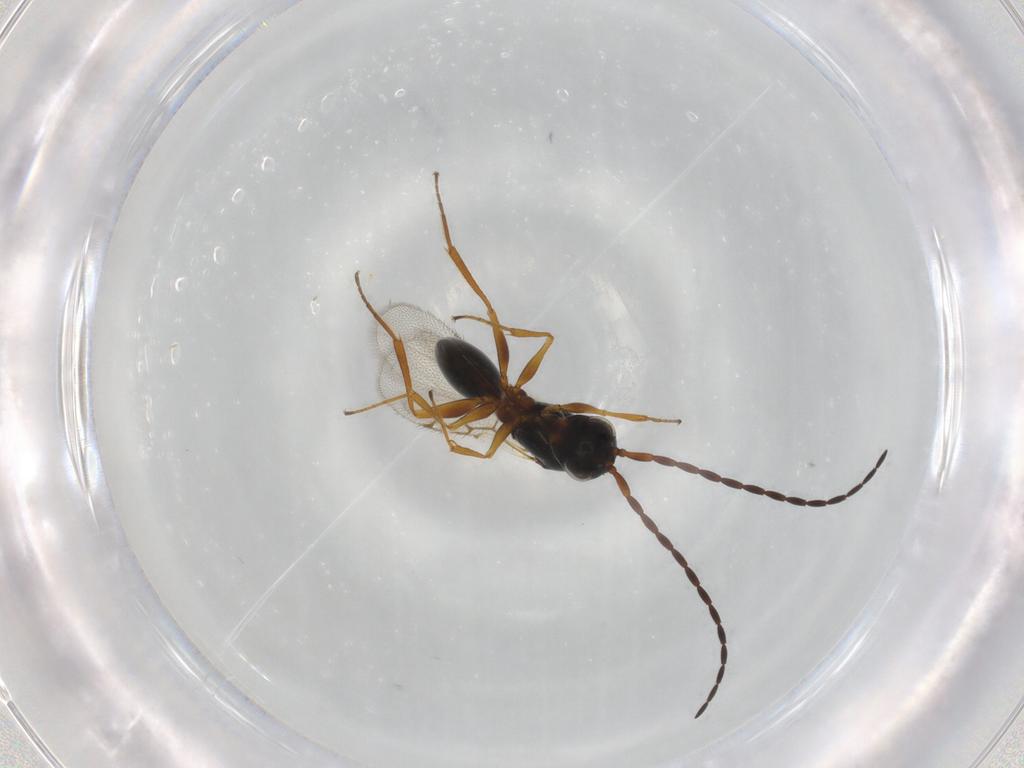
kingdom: Animalia
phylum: Arthropoda
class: Insecta
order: Hymenoptera
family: Figitidae
